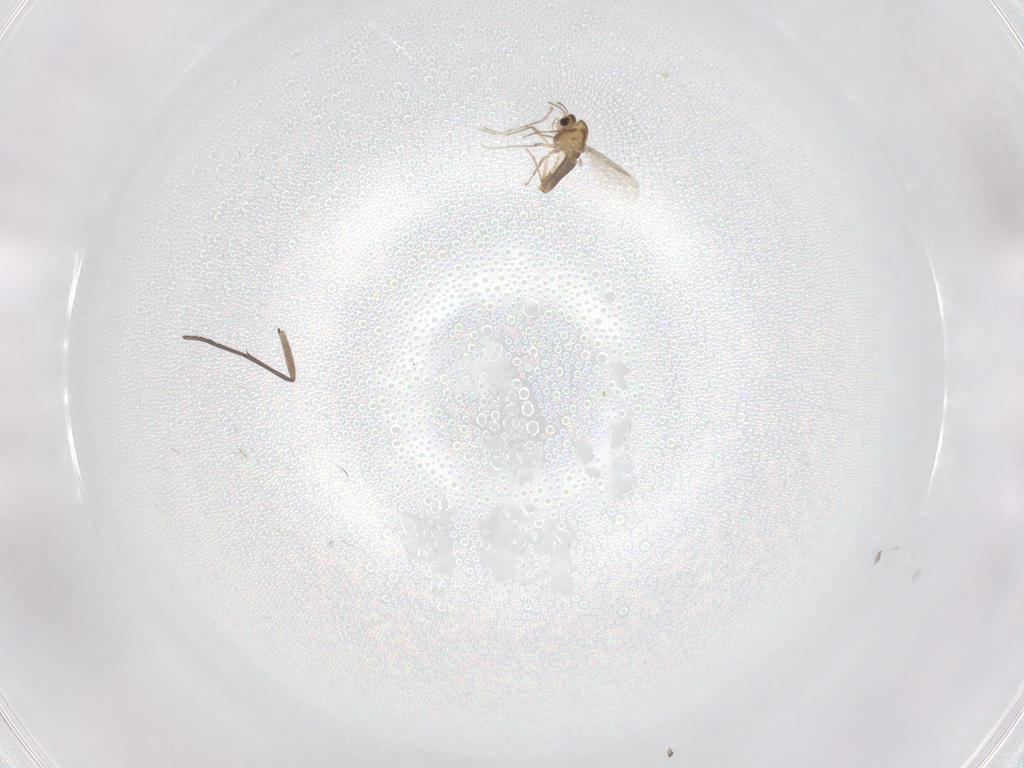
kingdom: Animalia
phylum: Arthropoda
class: Insecta
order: Diptera
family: Sciaridae
